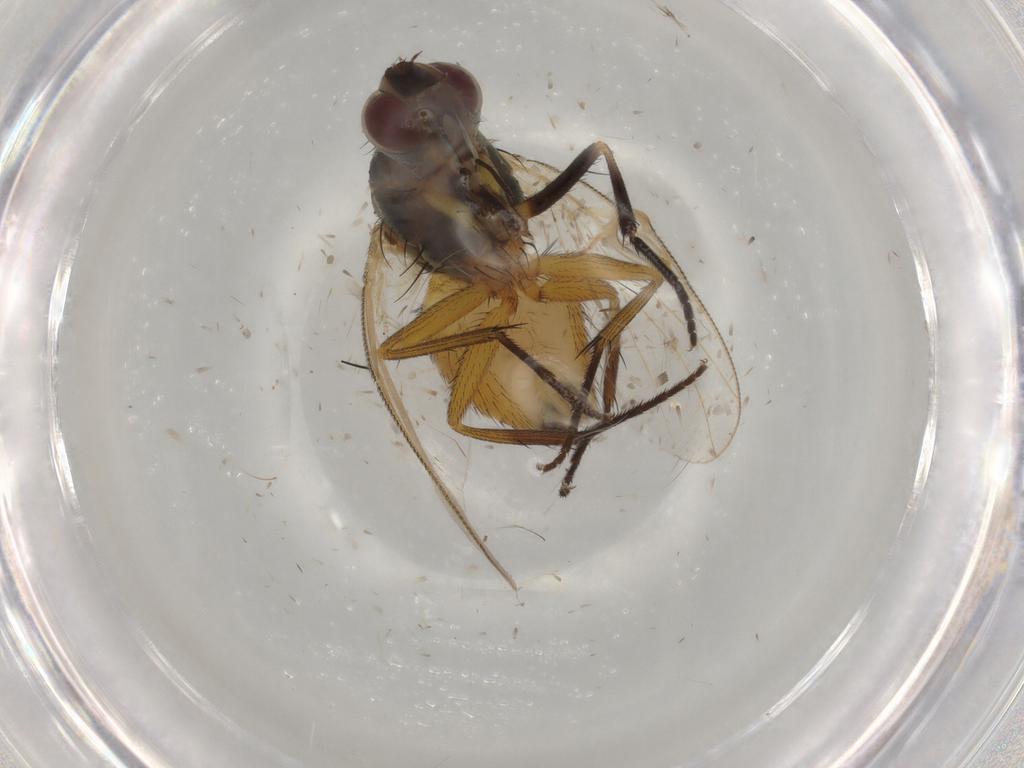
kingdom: Animalia
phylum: Arthropoda
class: Insecta
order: Diptera
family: Muscidae
